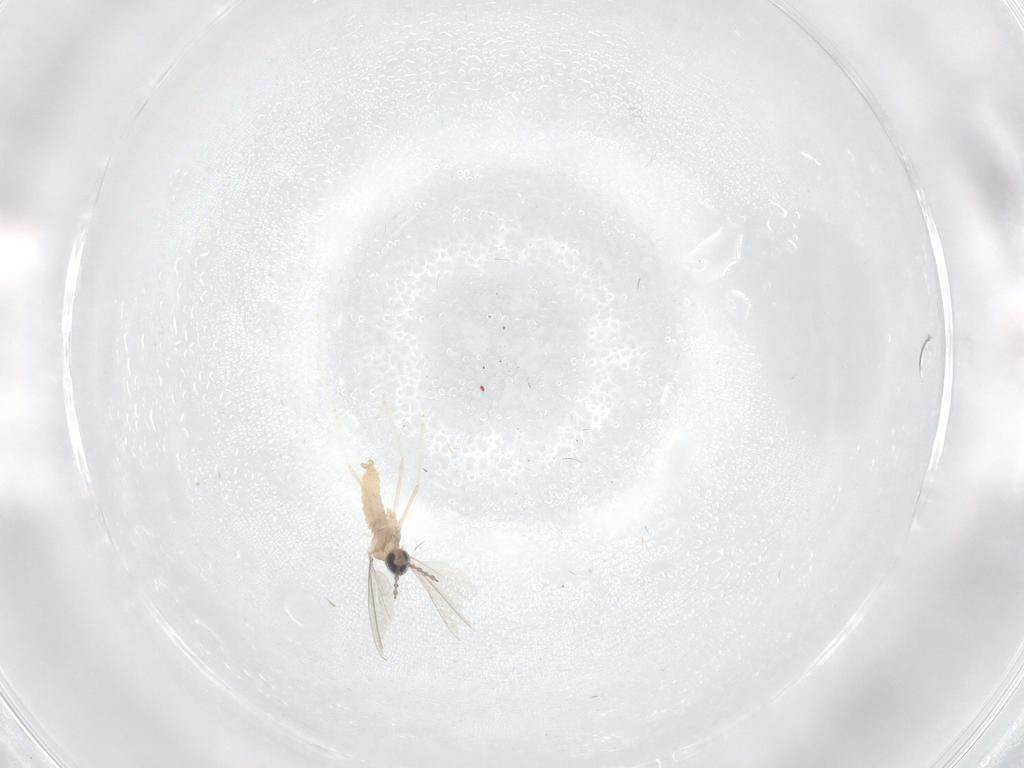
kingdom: Animalia
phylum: Arthropoda
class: Insecta
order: Diptera
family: Cecidomyiidae
